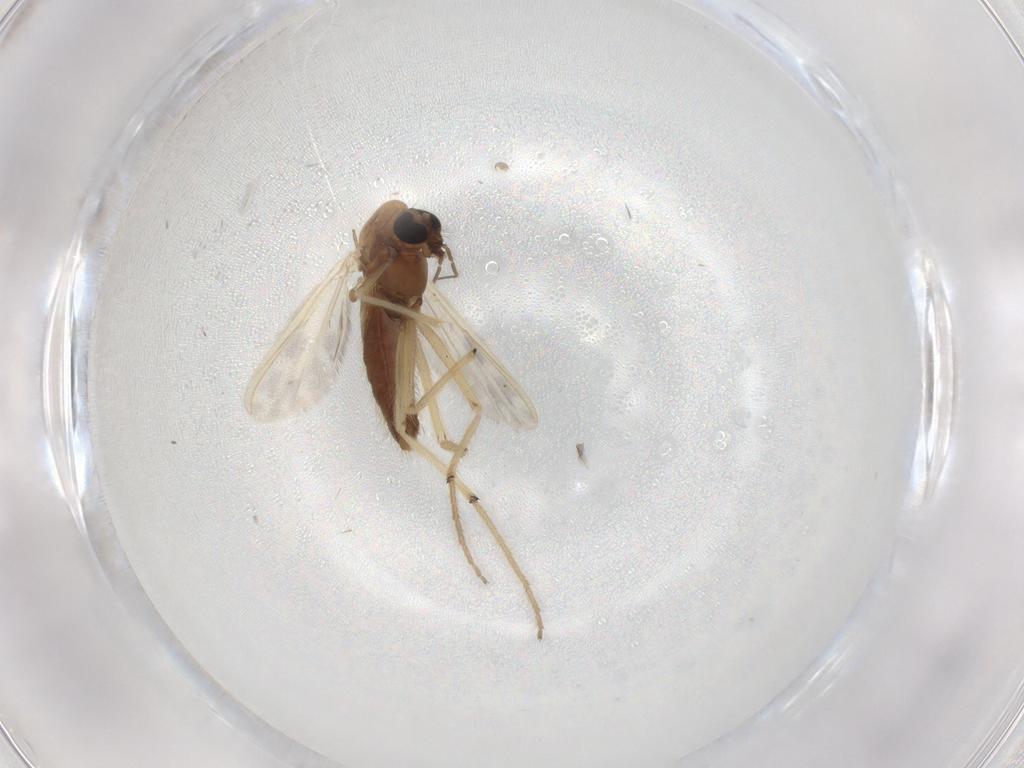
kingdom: Animalia
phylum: Arthropoda
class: Insecta
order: Diptera
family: Chironomidae
